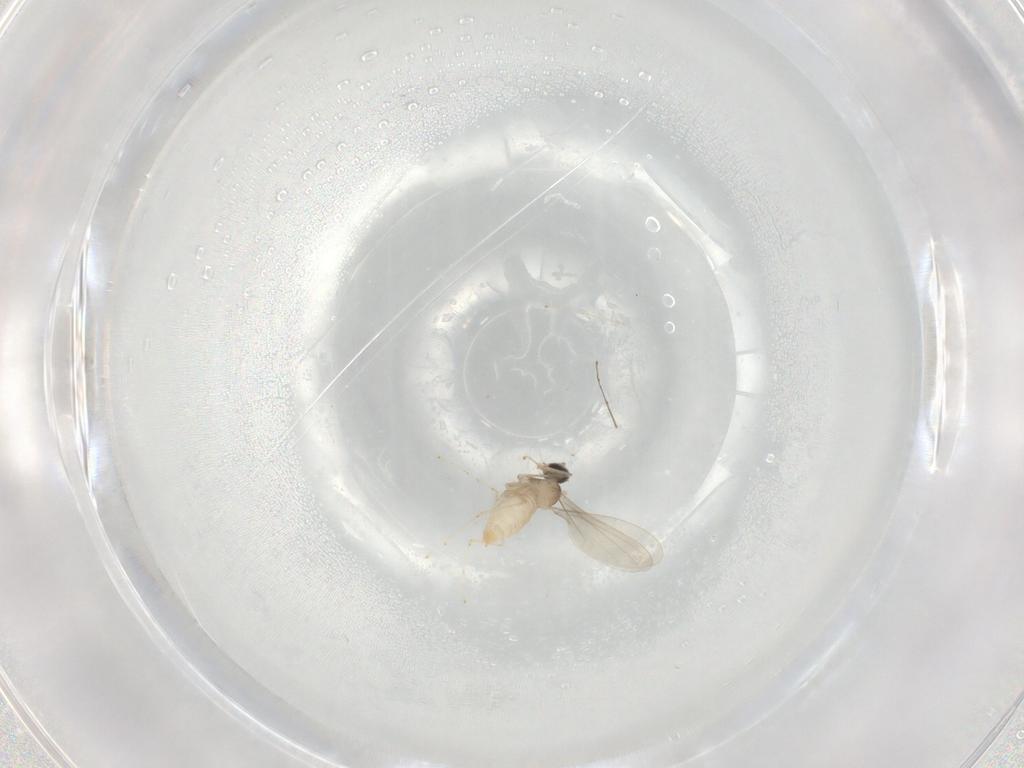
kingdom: Animalia
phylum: Arthropoda
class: Insecta
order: Diptera
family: Cecidomyiidae
